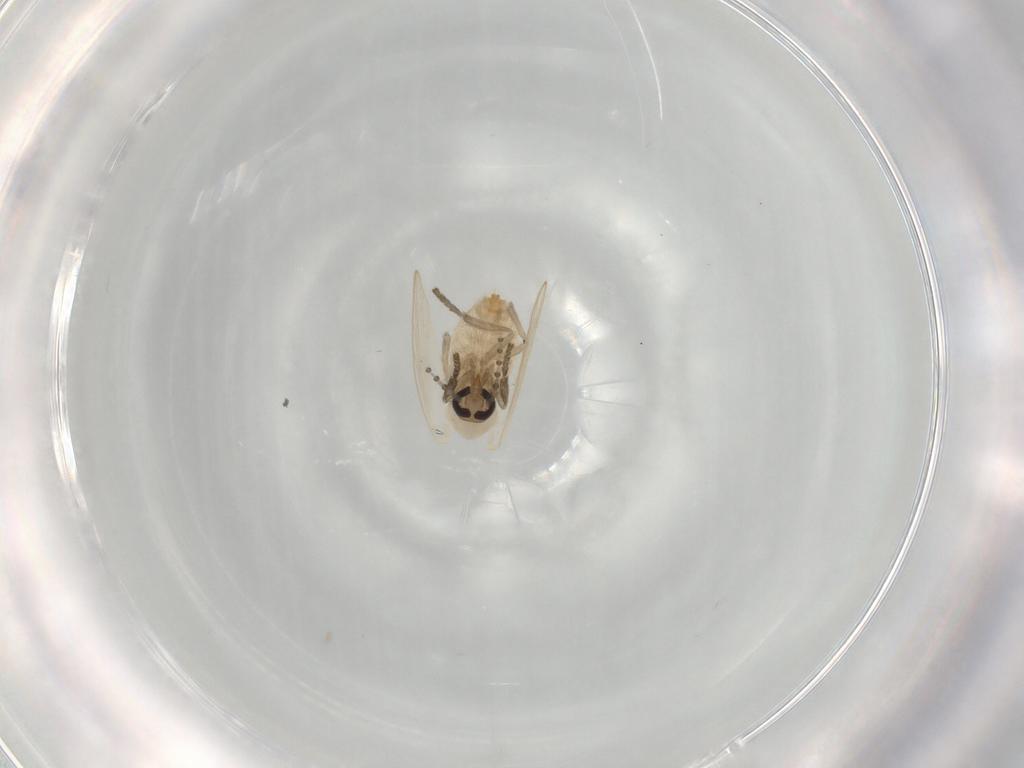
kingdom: Animalia
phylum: Arthropoda
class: Insecta
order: Diptera
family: Psychodidae
